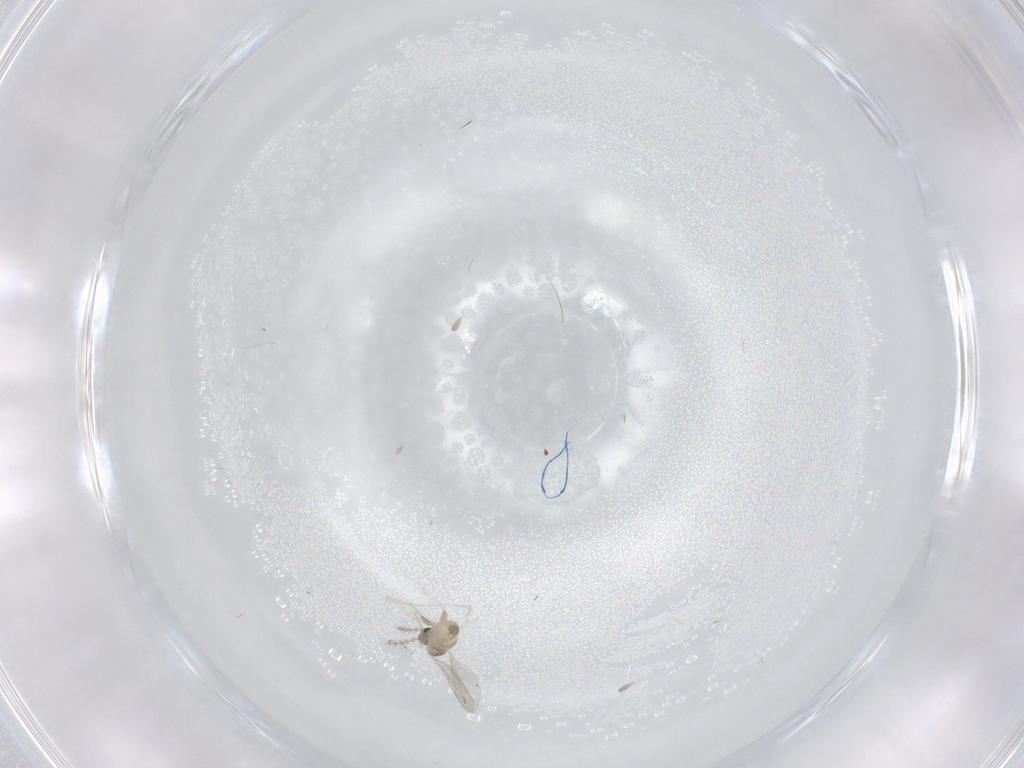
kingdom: Animalia
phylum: Arthropoda
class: Insecta
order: Diptera
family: Cecidomyiidae
